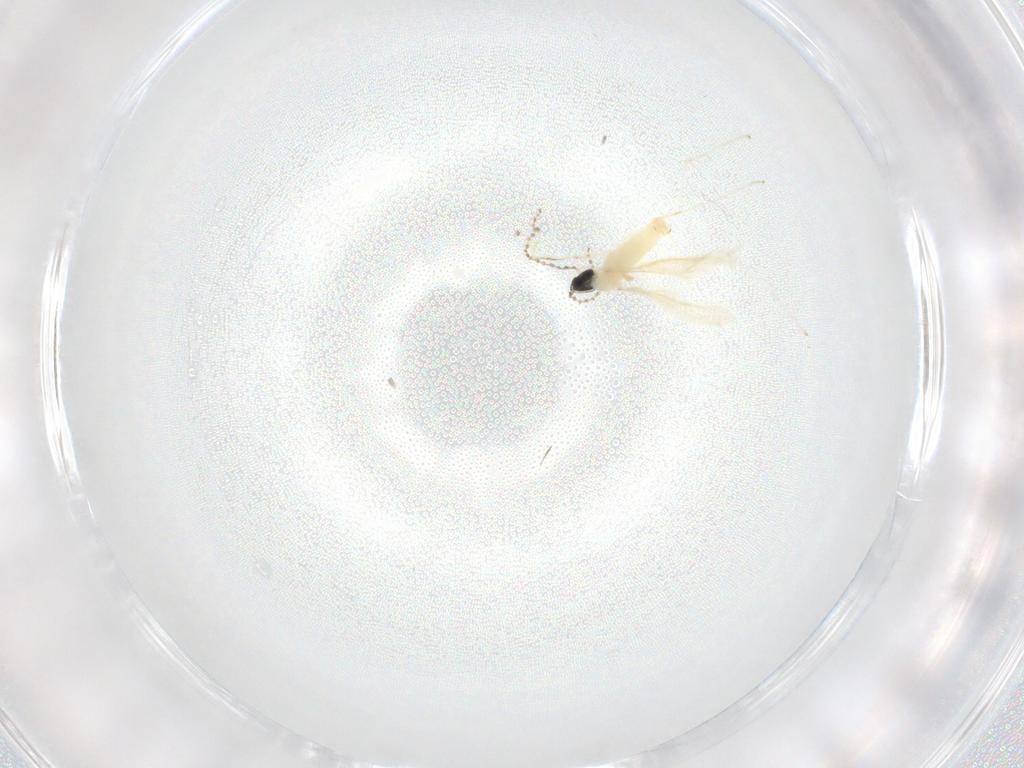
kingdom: Animalia
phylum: Arthropoda
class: Insecta
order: Diptera
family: Cecidomyiidae
